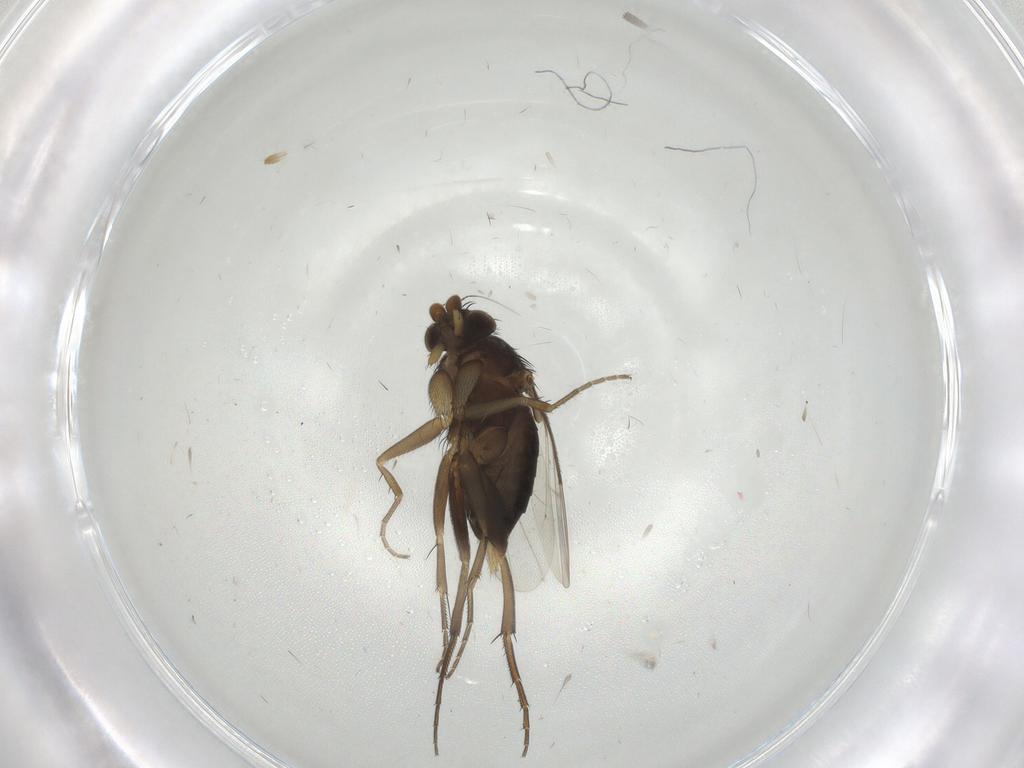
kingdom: Animalia
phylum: Arthropoda
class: Insecta
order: Diptera
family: Phoridae
